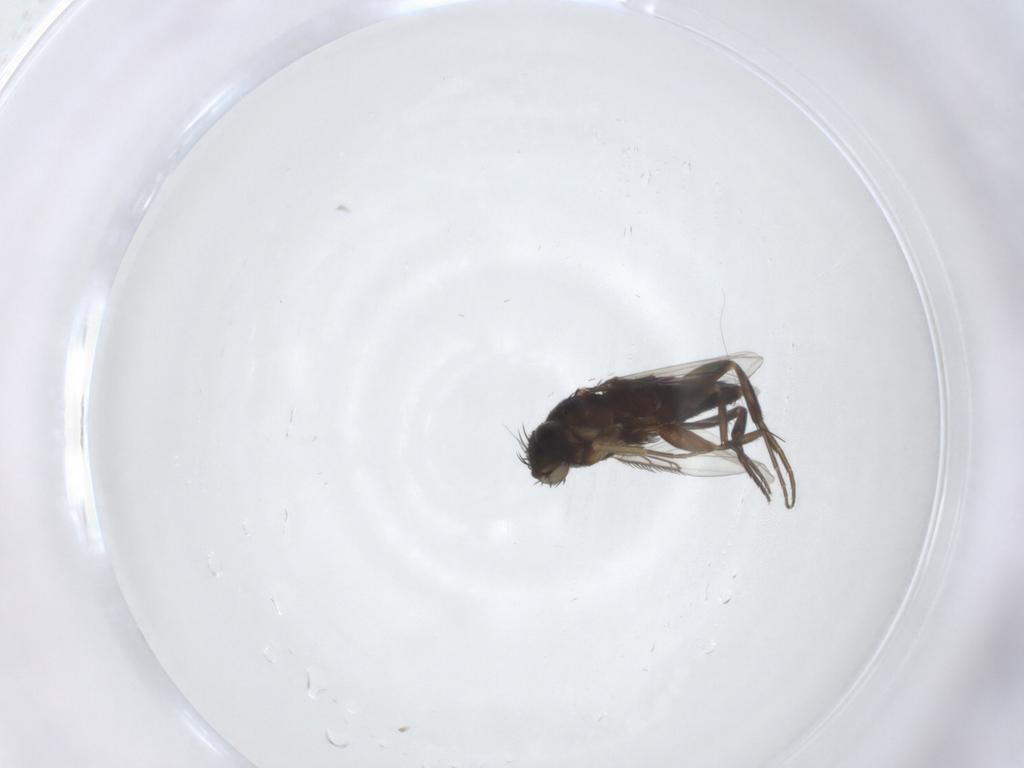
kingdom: Animalia
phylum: Arthropoda
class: Insecta
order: Diptera
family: Phoridae
